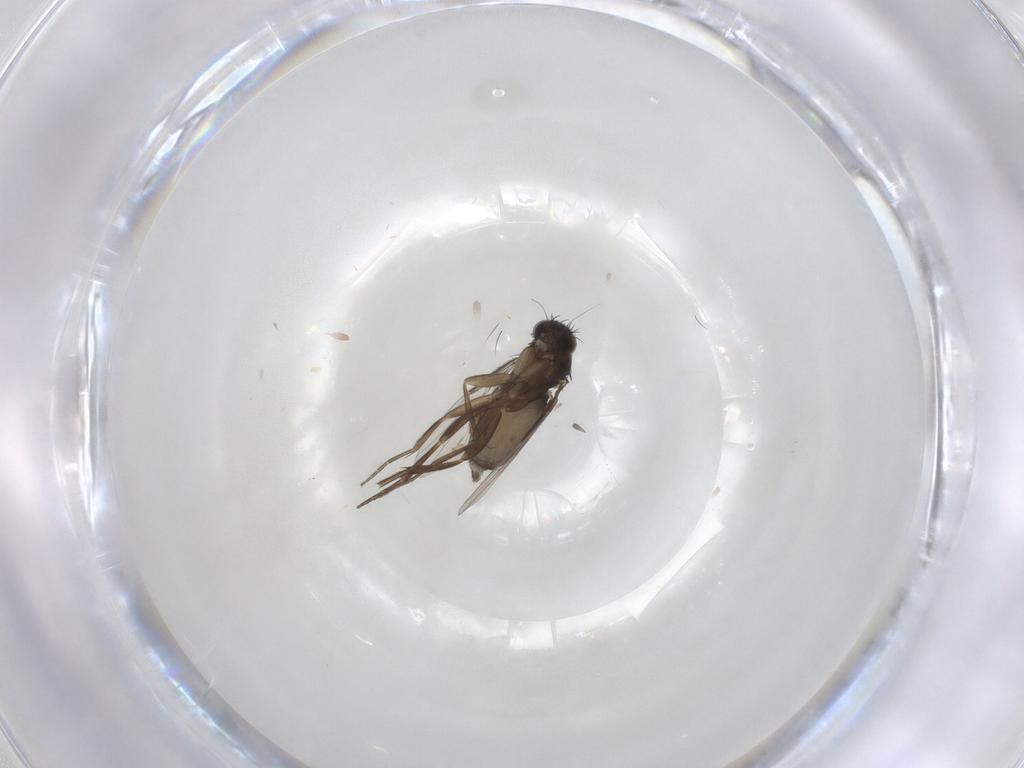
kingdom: Animalia
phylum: Arthropoda
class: Insecta
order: Diptera
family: Phoridae
